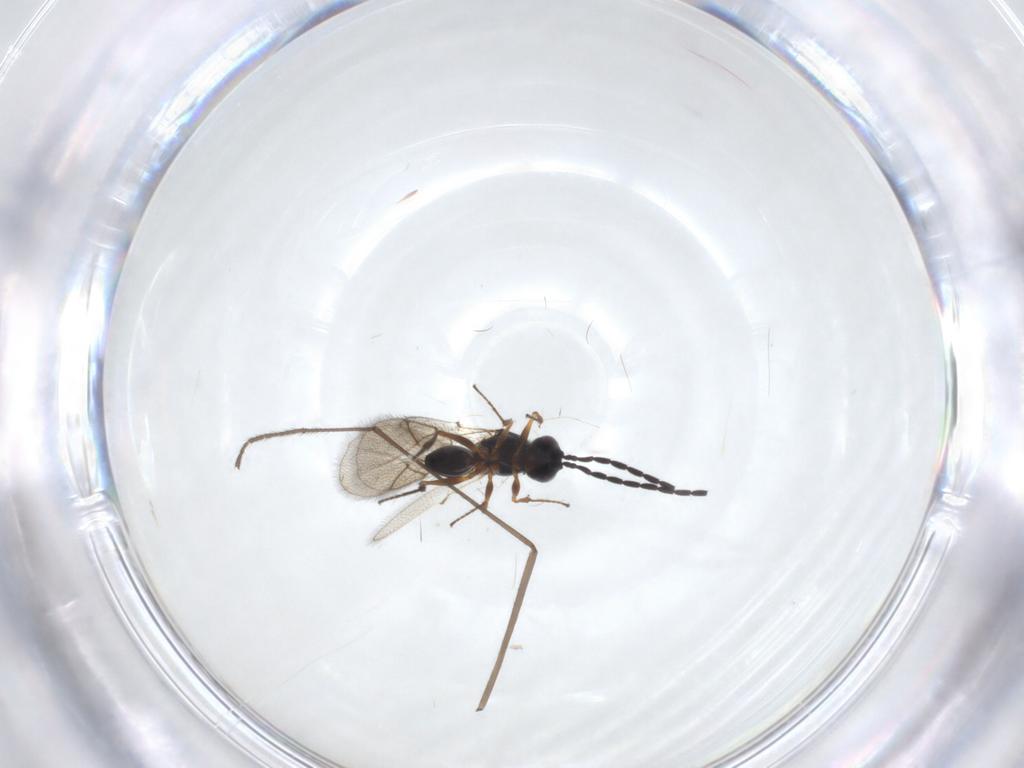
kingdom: Animalia
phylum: Arthropoda
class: Insecta
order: Hymenoptera
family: Figitidae
